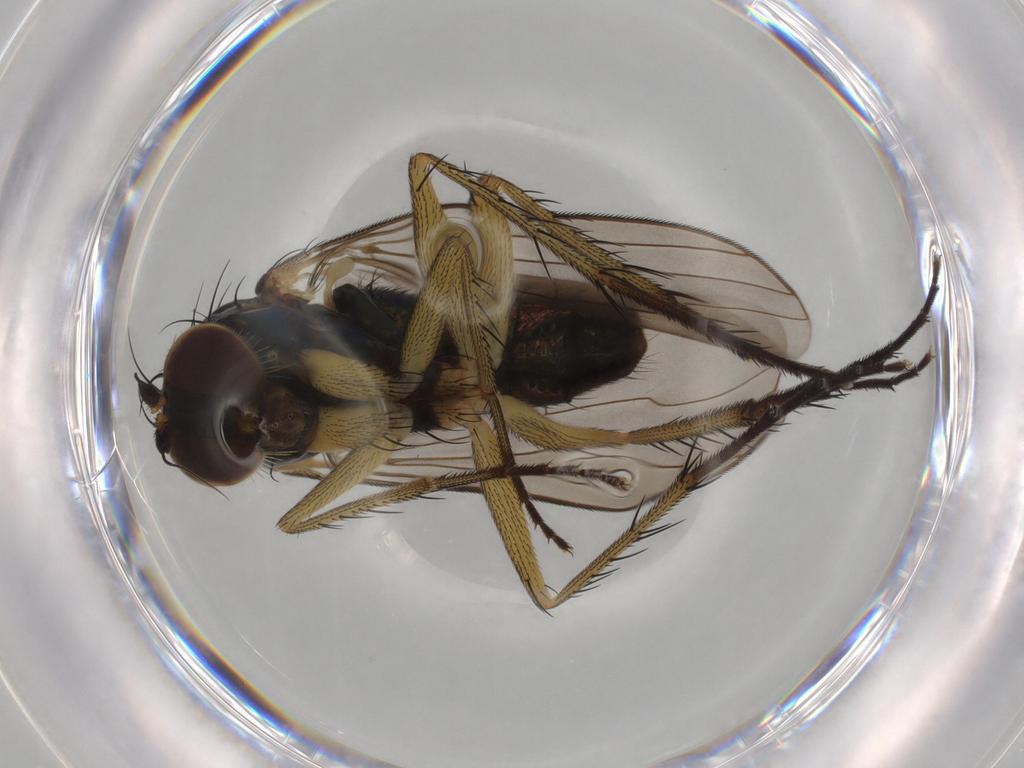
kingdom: Animalia
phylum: Arthropoda
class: Insecta
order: Diptera
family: Dolichopodidae
